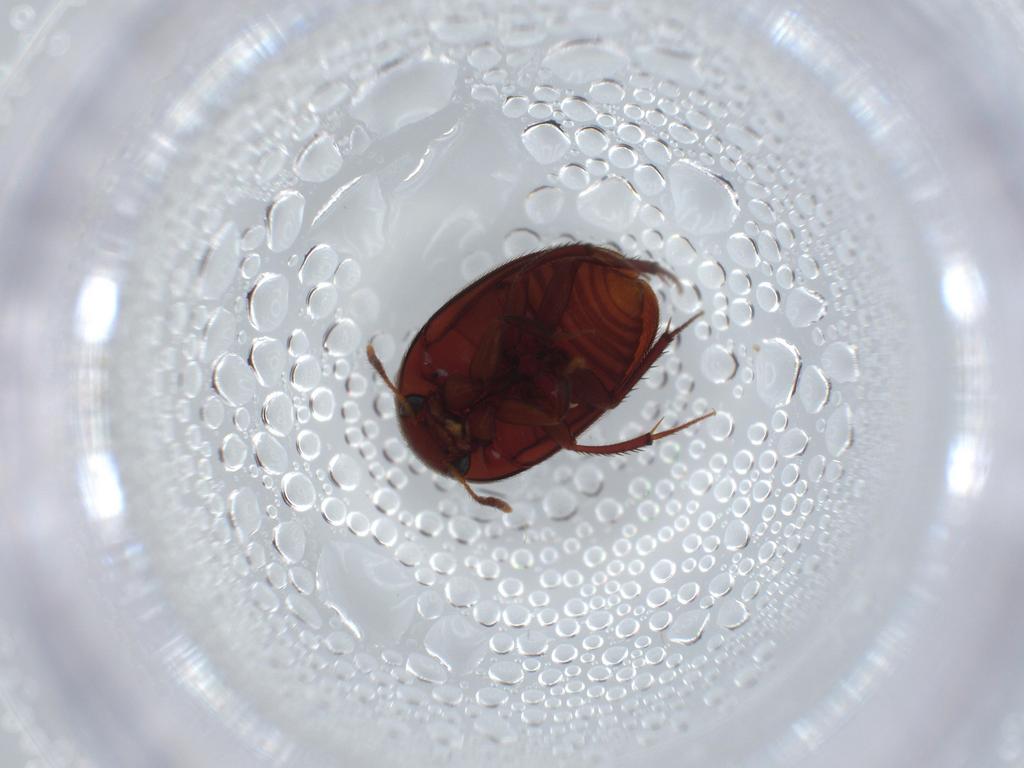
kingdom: Animalia
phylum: Arthropoda
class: Insecta
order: Coleoptera
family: Leiodidae
